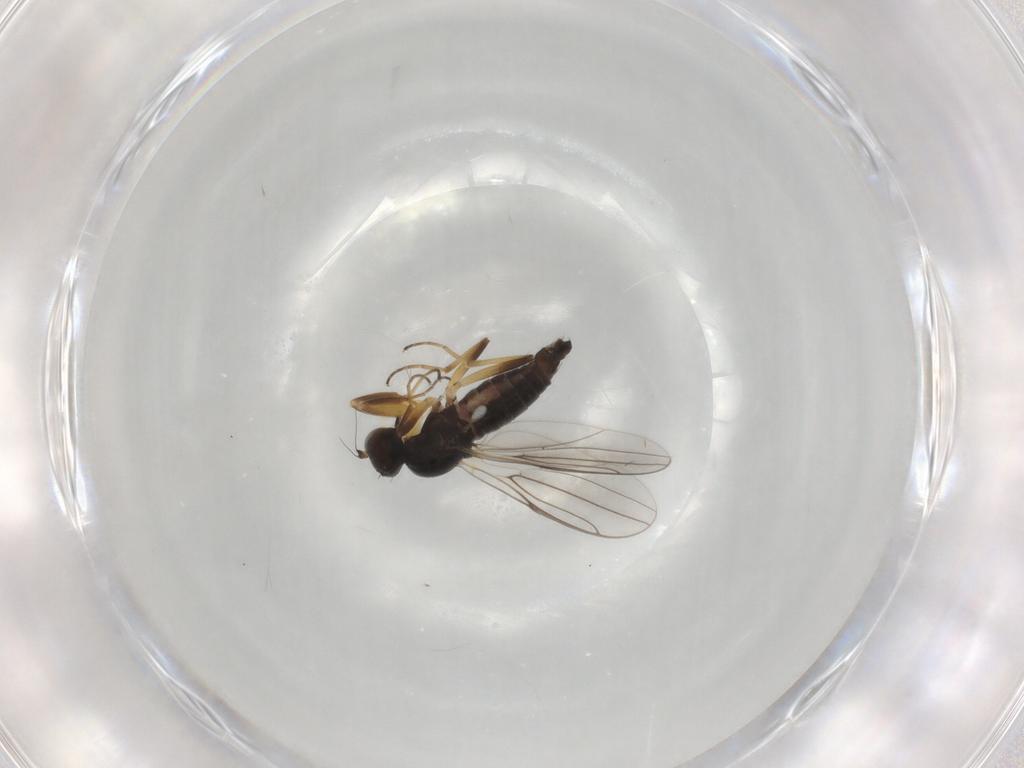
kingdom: Animalia
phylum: Arthropoda
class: Insecta
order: Diptera
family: Hybotidae
